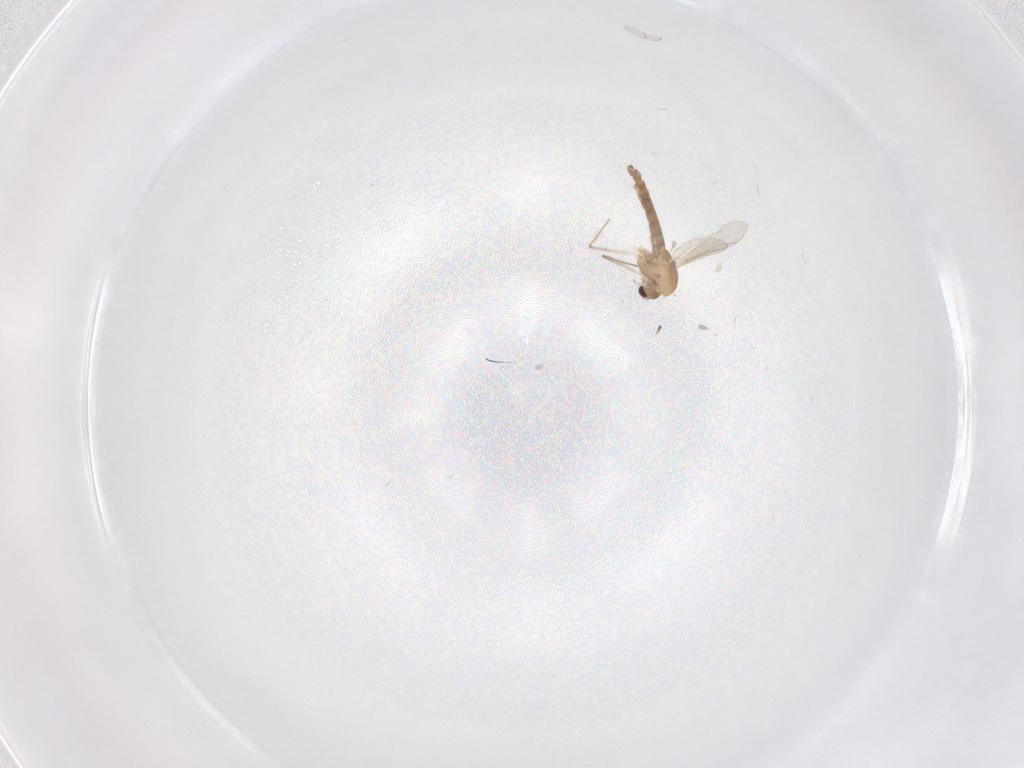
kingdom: Animalia
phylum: Arthropoda
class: Insecta
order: Diptera
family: Chironomidae
